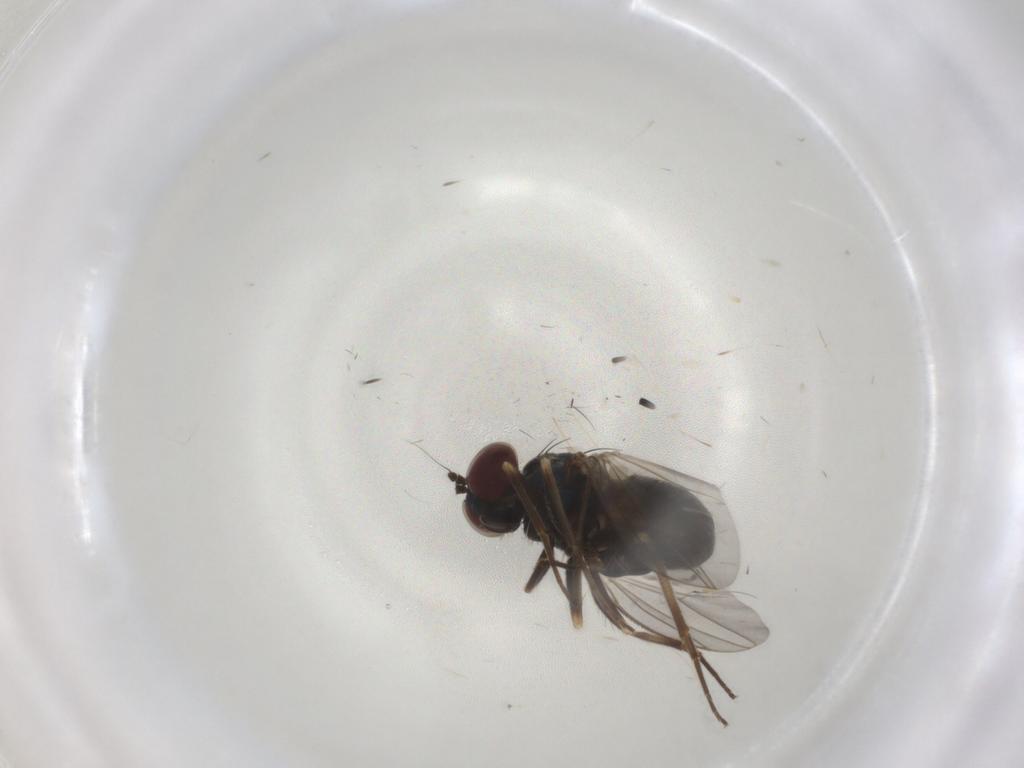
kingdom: Animalia
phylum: Arthropoda
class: Insecta
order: Diptera
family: Dolichopodidae
